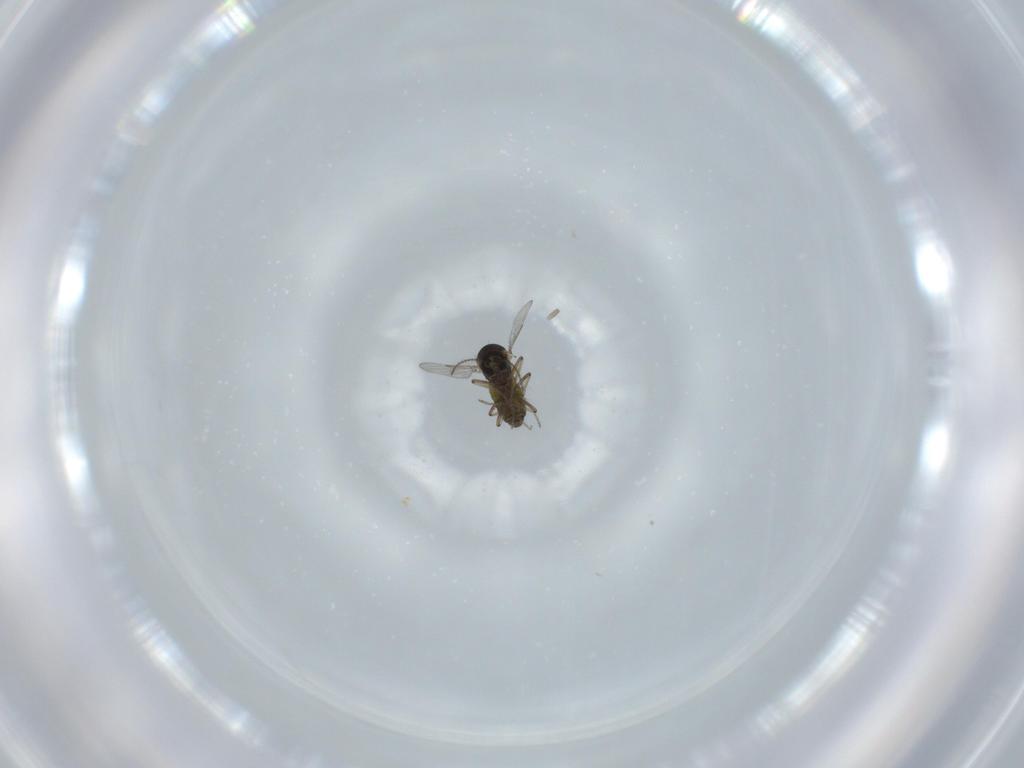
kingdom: Animalia
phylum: Arthropoda
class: Insecta
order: Diptera
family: Ceratopogonidae
